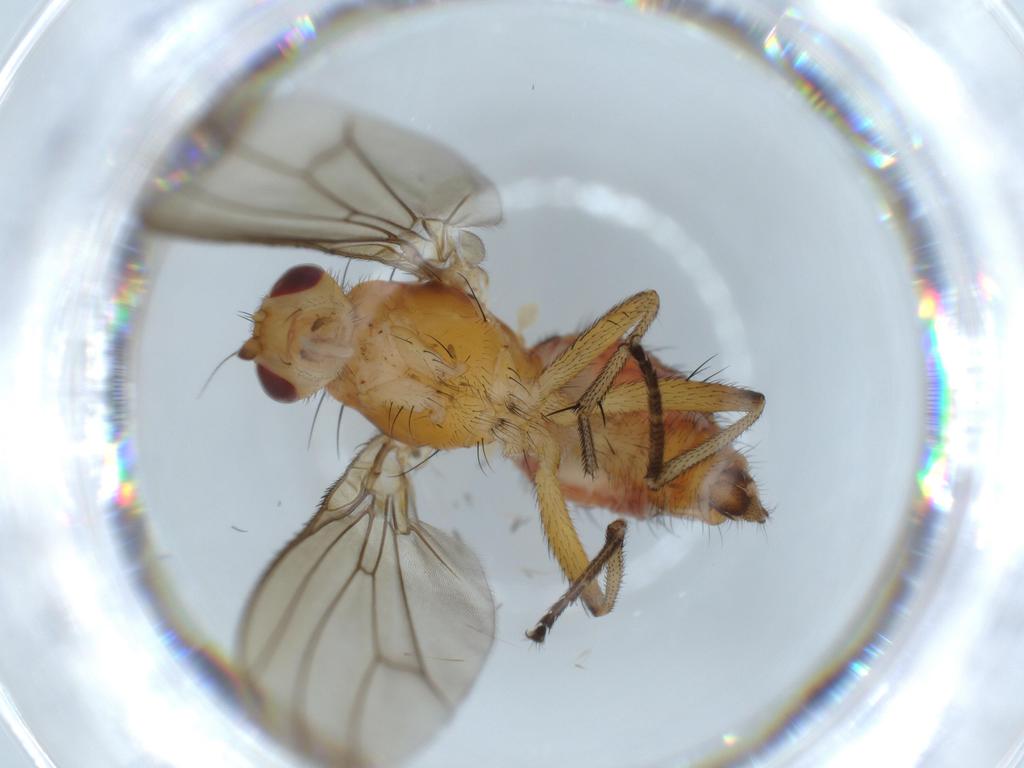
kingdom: Animalia
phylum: Arthropoda
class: Insecta
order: Diptera
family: Heleomyzidae
